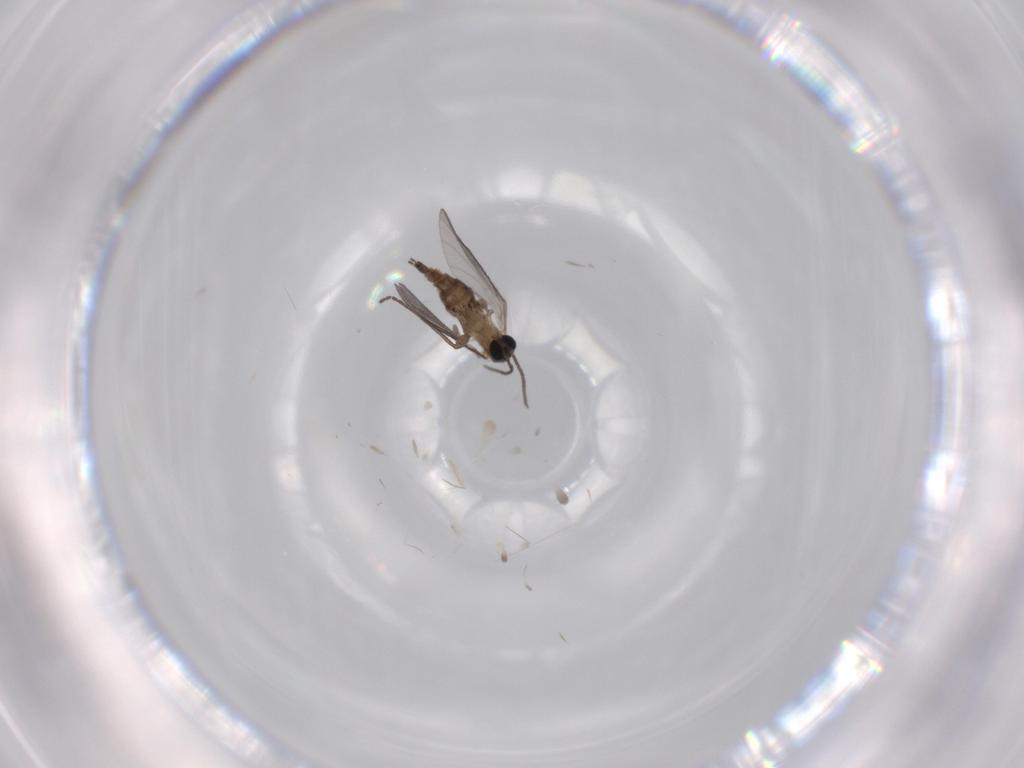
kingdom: Animalia
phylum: Arthropoda
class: Insecta
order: Diptera
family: Sciaridae
